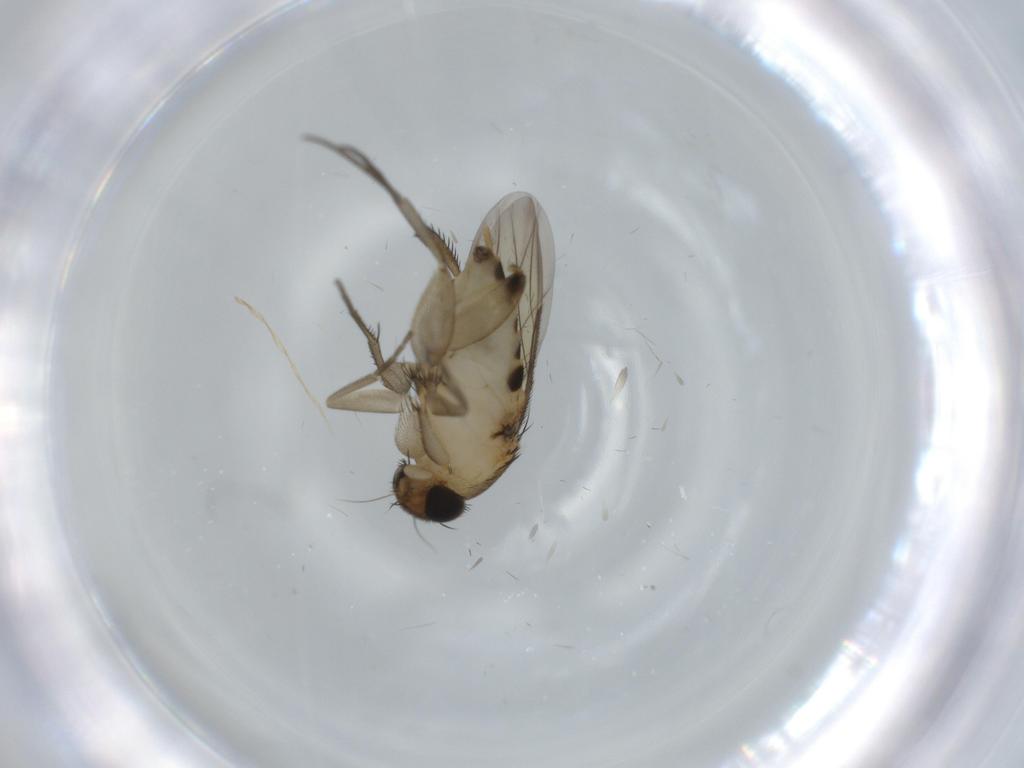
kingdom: Animalia
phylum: Arthropoda
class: Insecta
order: Diptera
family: Phoridae
